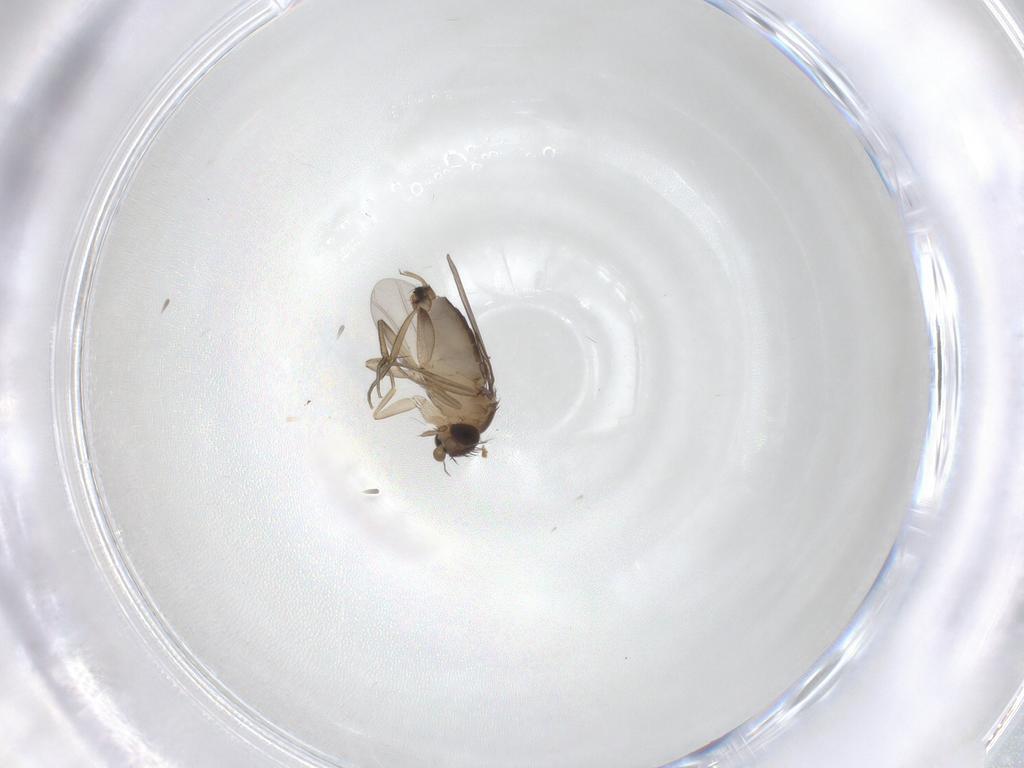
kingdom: Animalia
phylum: Arthropoda
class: Insecta
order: Diptera
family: Phoridae
